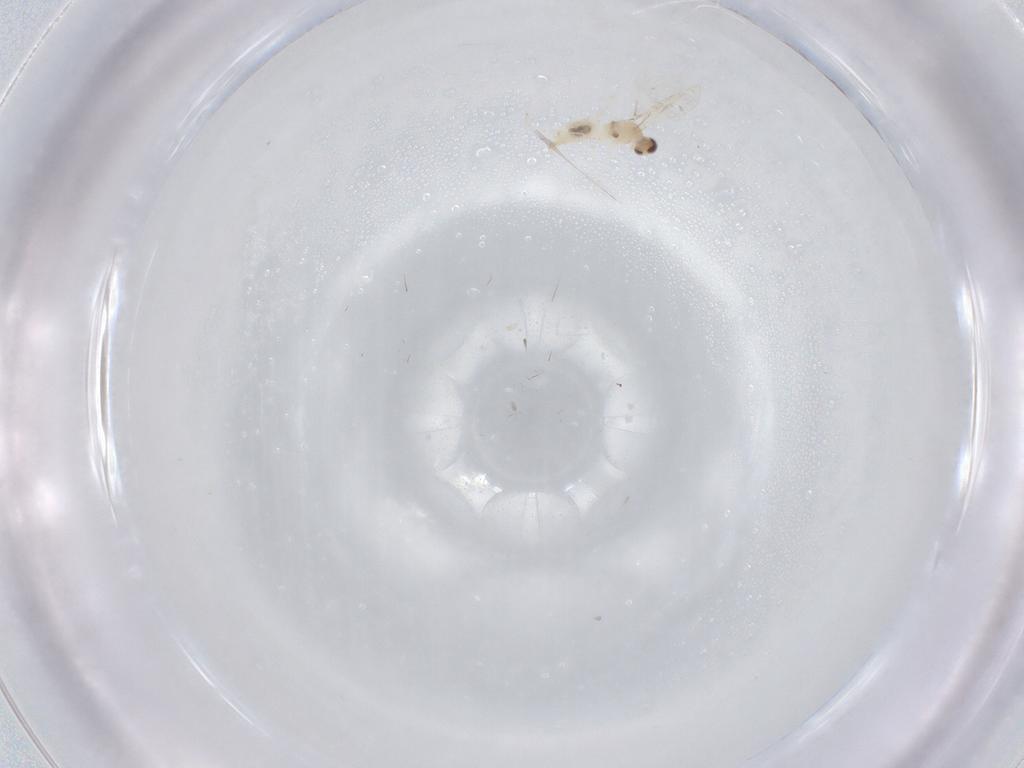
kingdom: Animalia
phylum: Arthropoda
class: Insecta
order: Diptera
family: Cecidomyiidae
